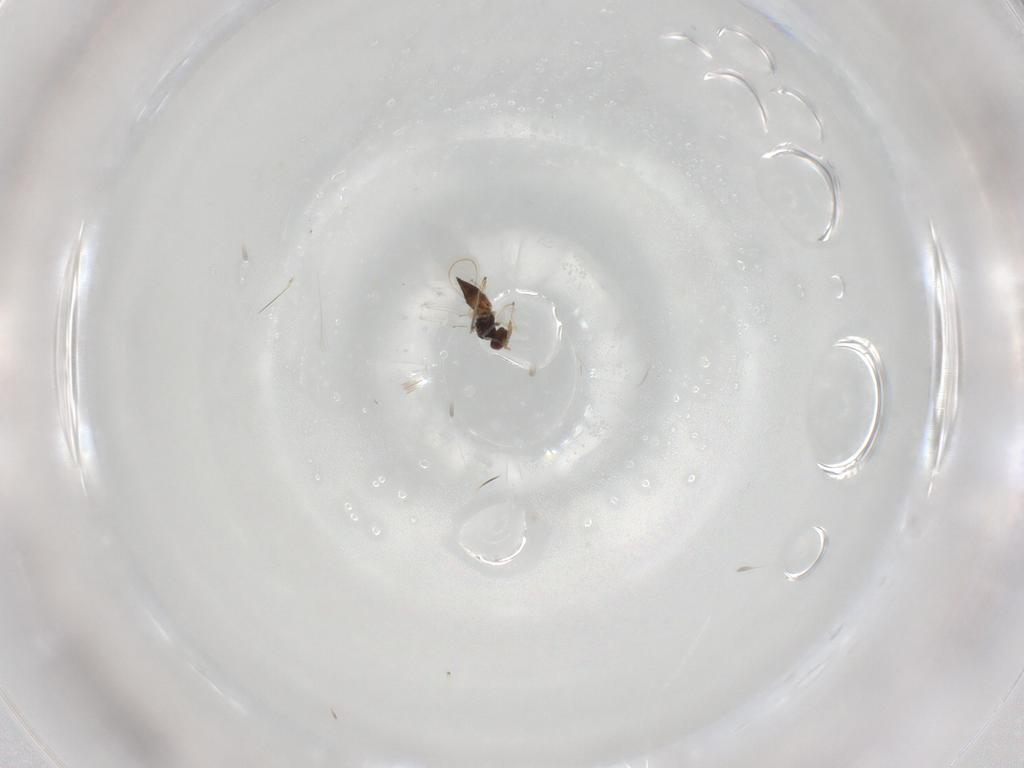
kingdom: Animalia
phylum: Arthropoda
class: Insecta
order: Hymenoptera
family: Eulophidae
